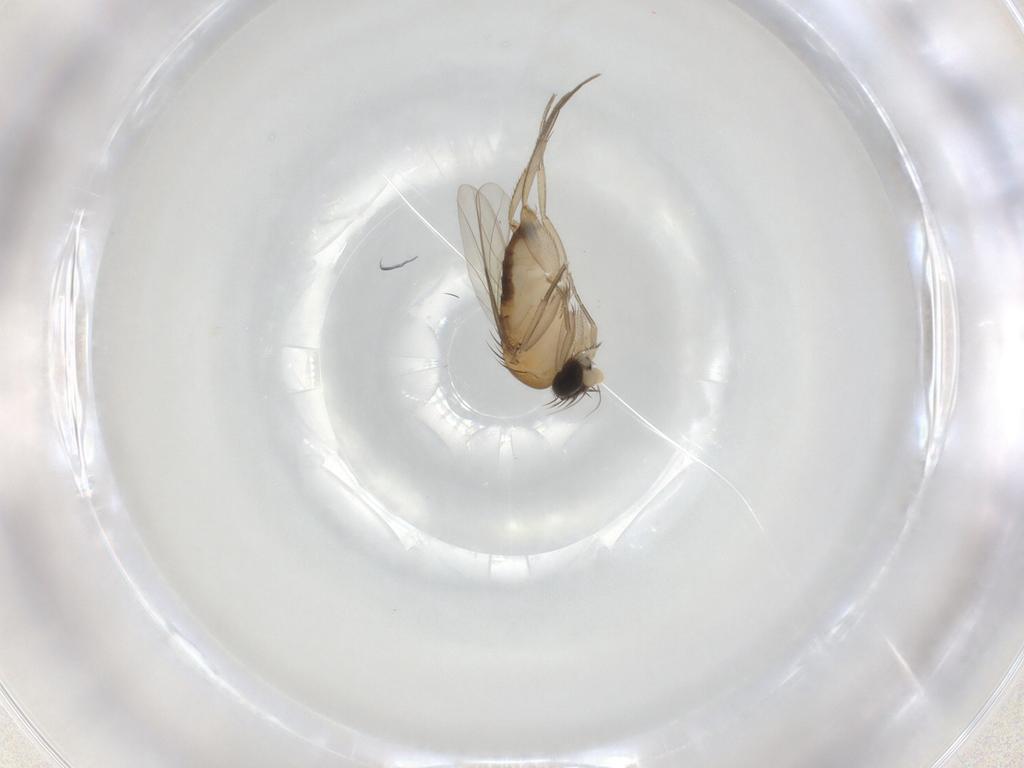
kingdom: Animalia
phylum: Arthropoda
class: Insecta
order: Diptera
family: Phoridae
